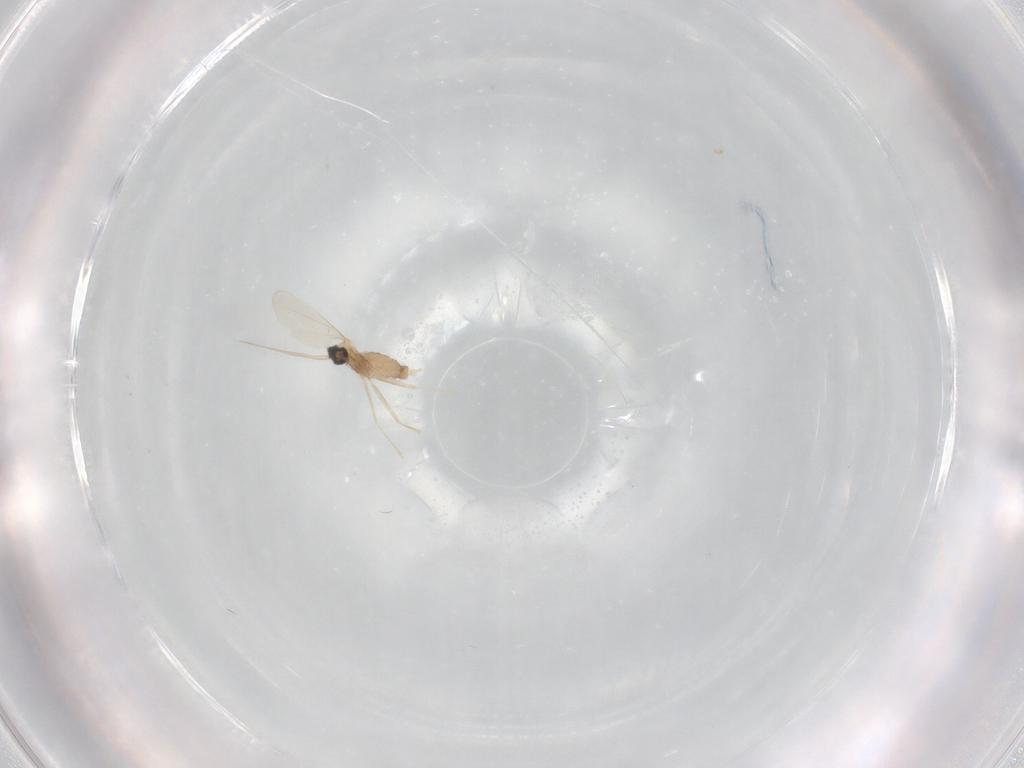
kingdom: Animalia
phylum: Arthropoda
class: Insecta
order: Diptera
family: Cecidomyiidae
